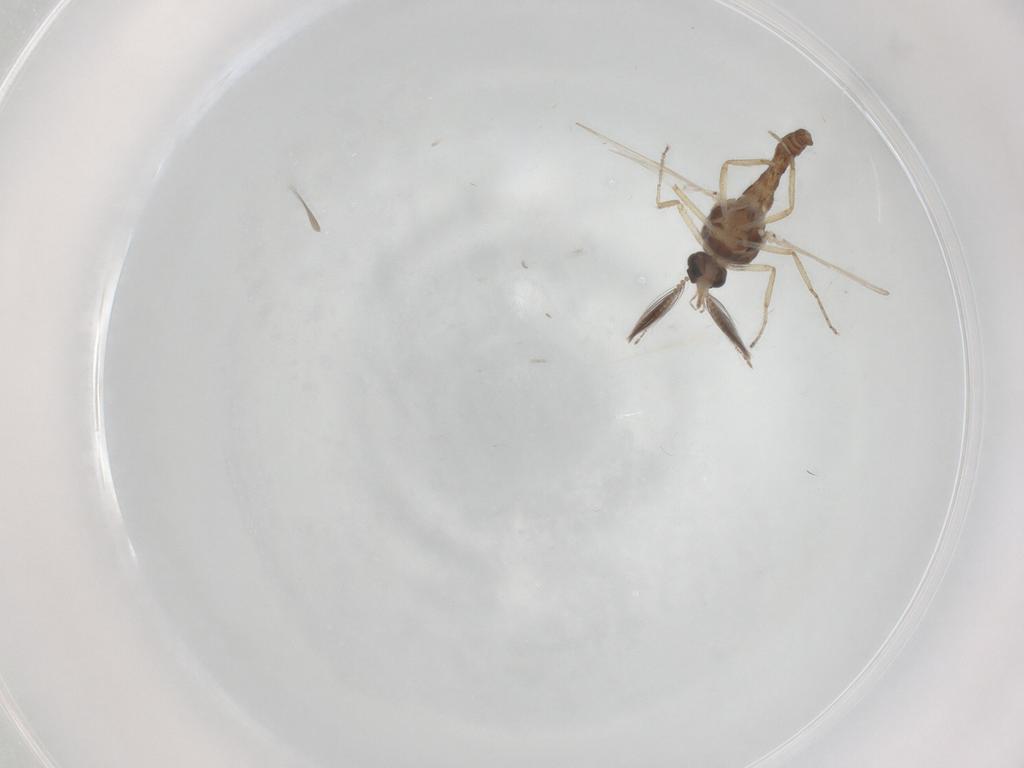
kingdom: Animalia
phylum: Arthropoda
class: Insecta
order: Diptera
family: Ceratopogonidae
